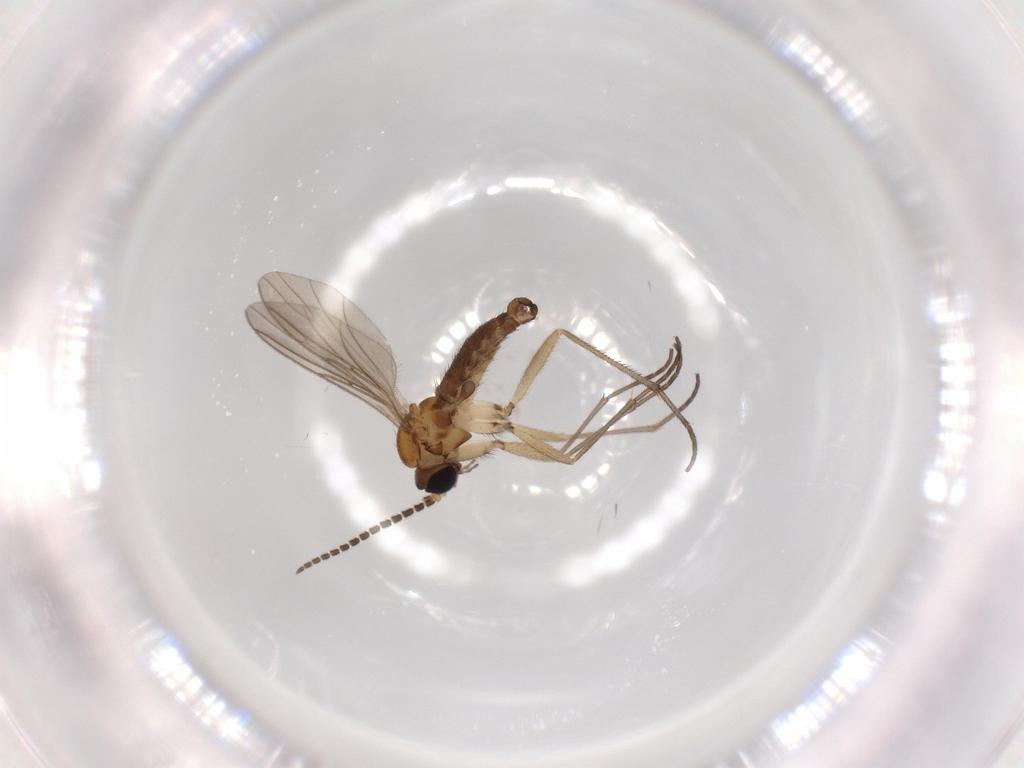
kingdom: Animalia
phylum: Arthropoda
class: Insecta
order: Diptera
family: Sciaridae
